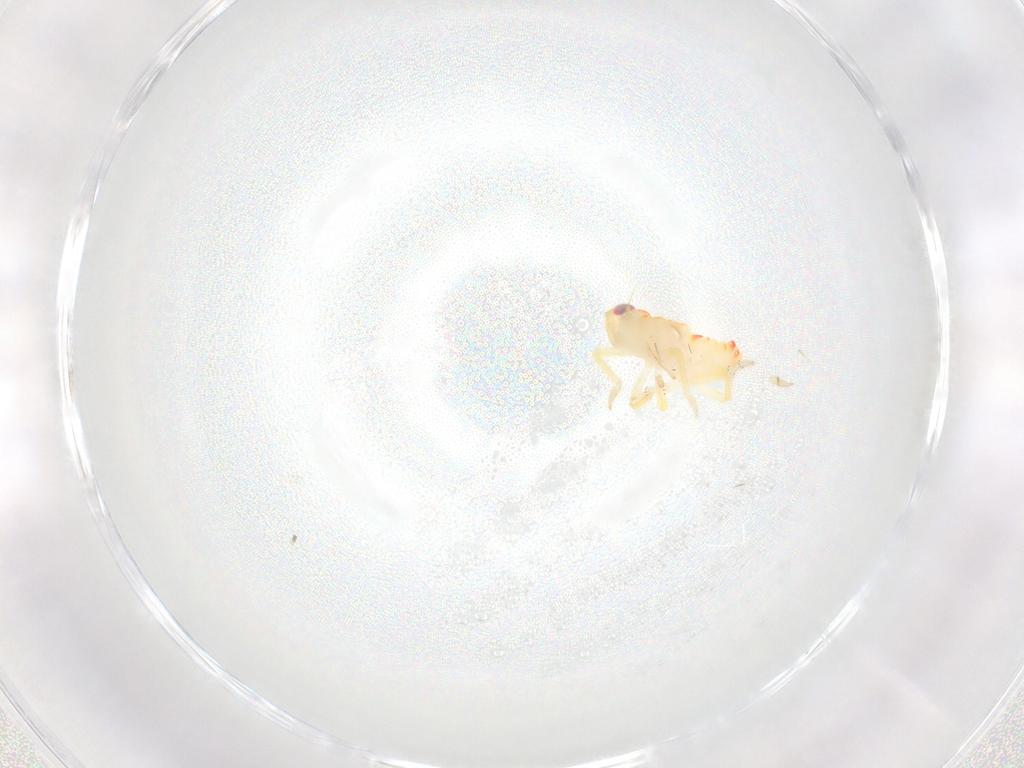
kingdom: Animalia
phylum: Arthropoda
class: Insecta
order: Hemiptera
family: Tropiduchidae
